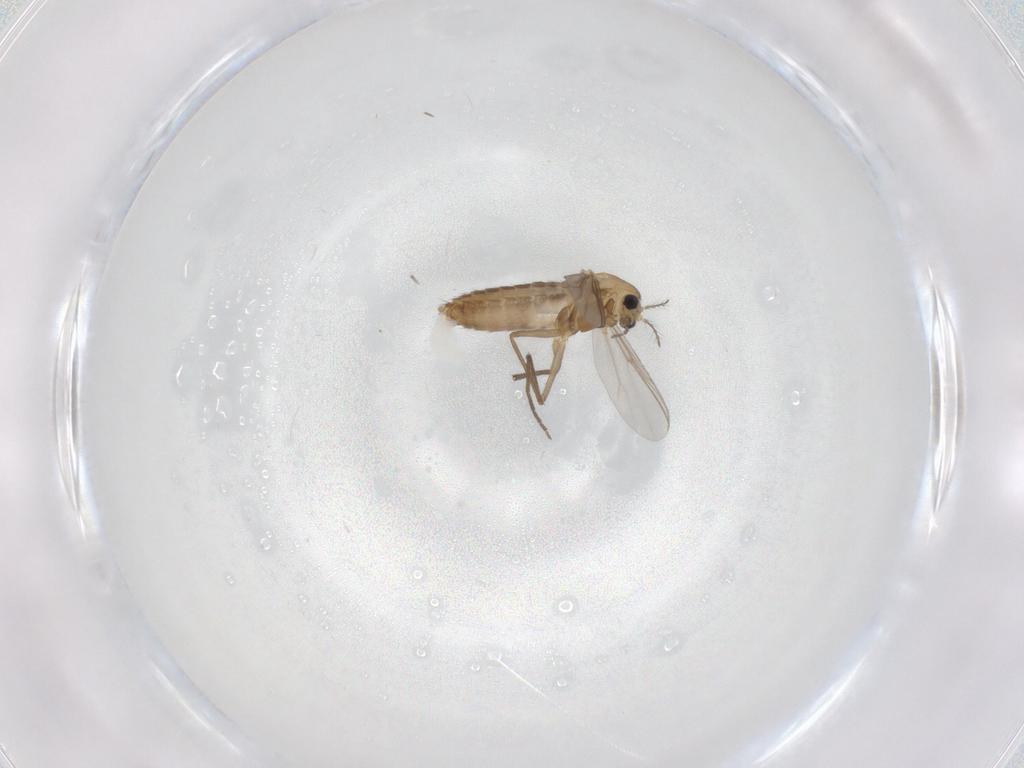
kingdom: Animalia
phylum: Arthropoda
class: Insecta
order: Diptera
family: Chironomidae
